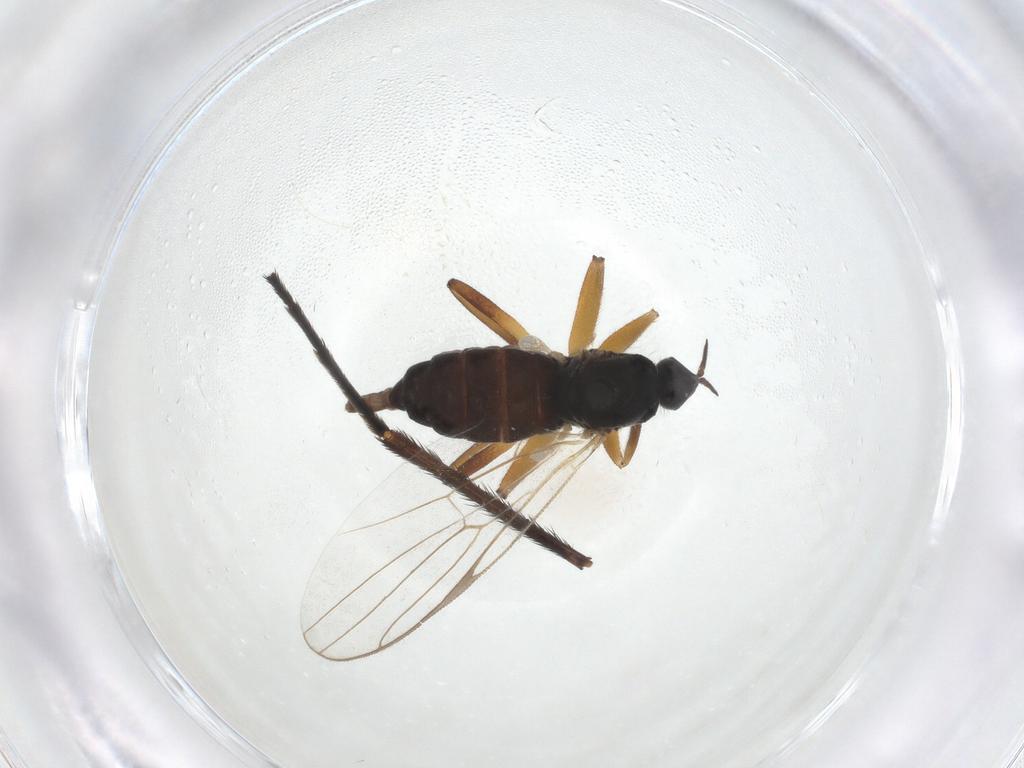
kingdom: Animalia
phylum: Arthropoda
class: Insecta
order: Diptera
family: Hybotidae
